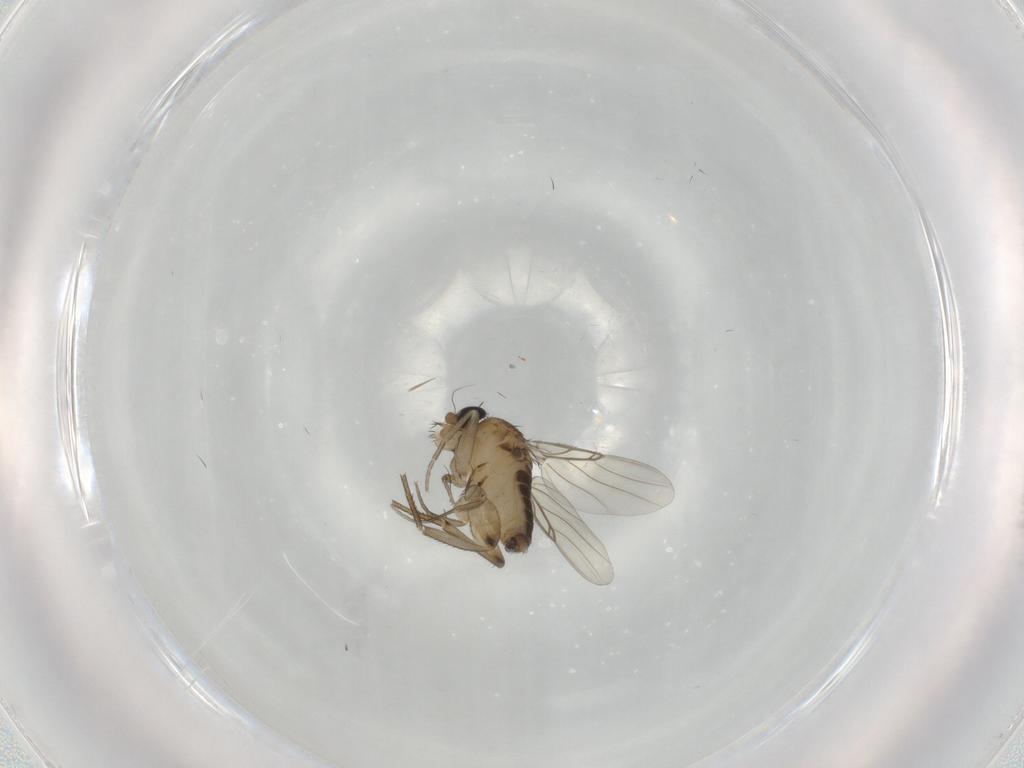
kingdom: Animalia
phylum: Arthropoda
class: Insecta
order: Diptera
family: Phoridae
